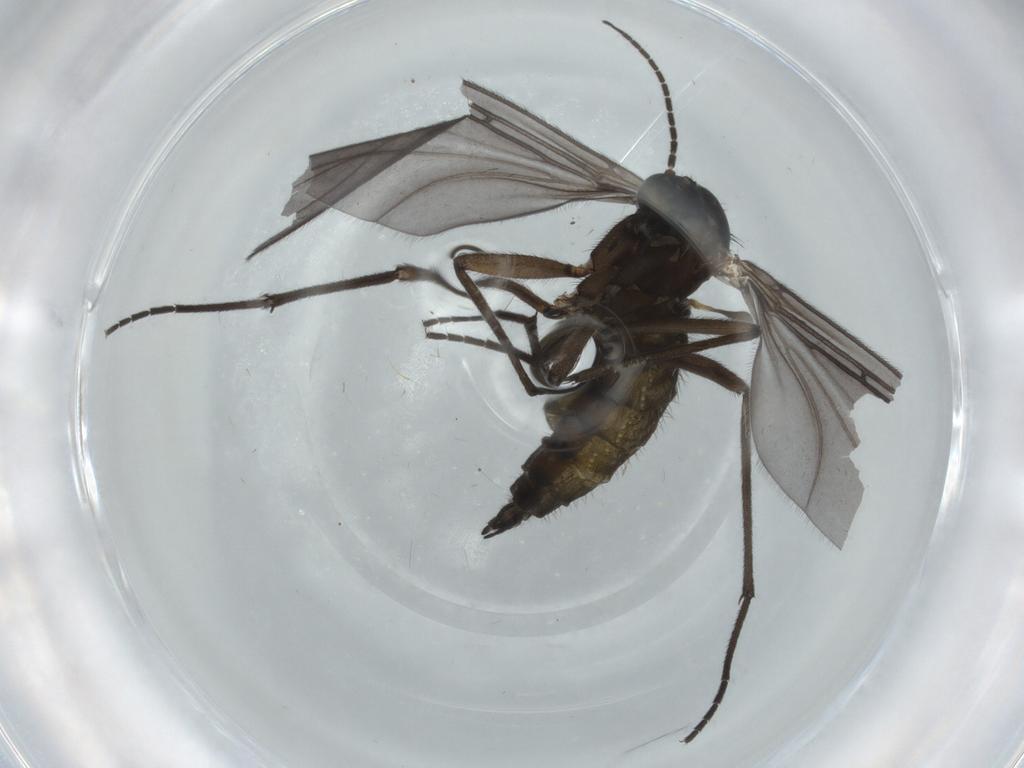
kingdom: Animalia
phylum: Arthropoda
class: Insecta
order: Diptera
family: Sciaridae
